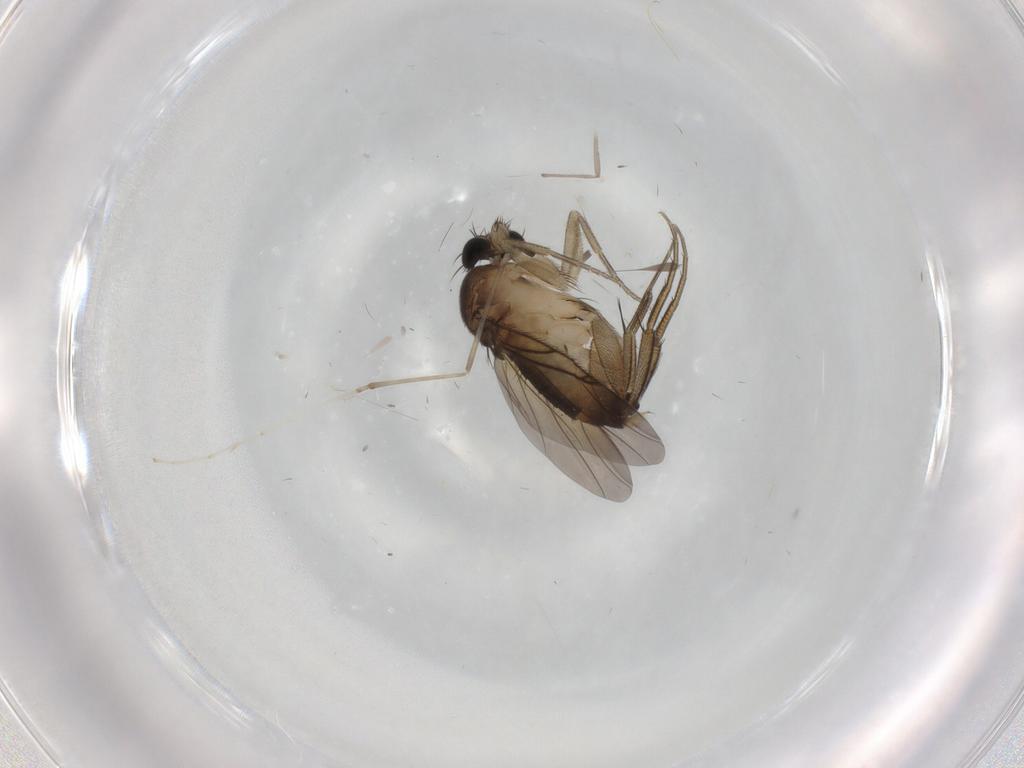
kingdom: Animalia
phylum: Arthropoda
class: Insecta
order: Diptera
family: Phoridae
